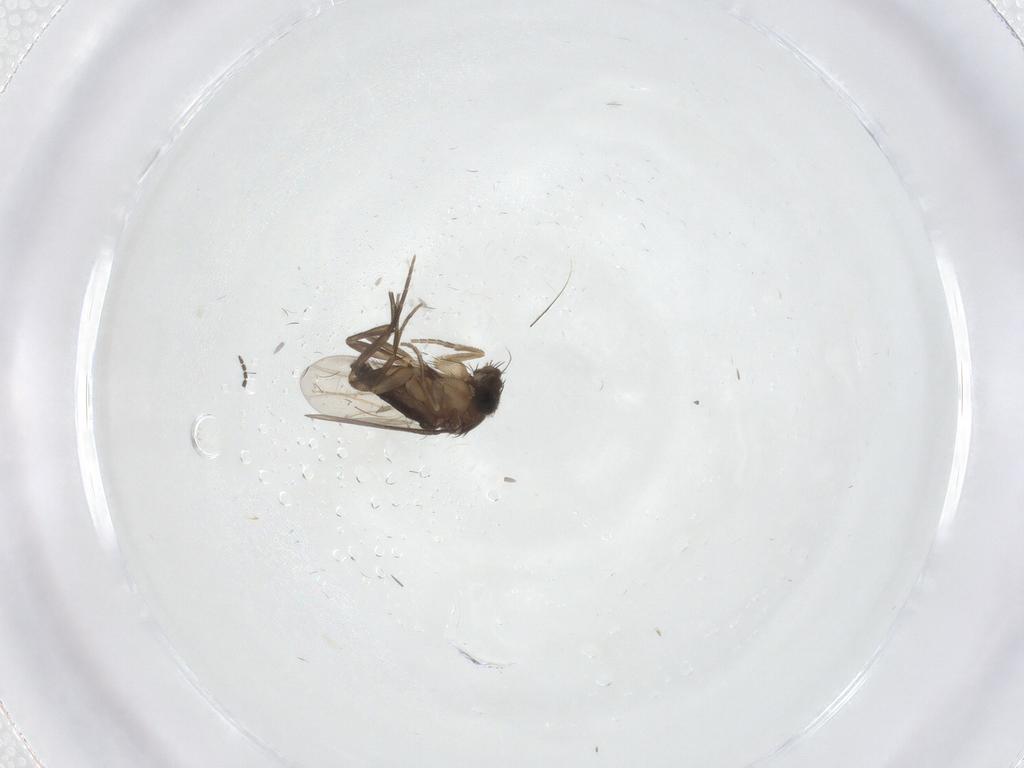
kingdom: Animalia
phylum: Arthropoda
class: Insecta
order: Diptera
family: Phoridae
